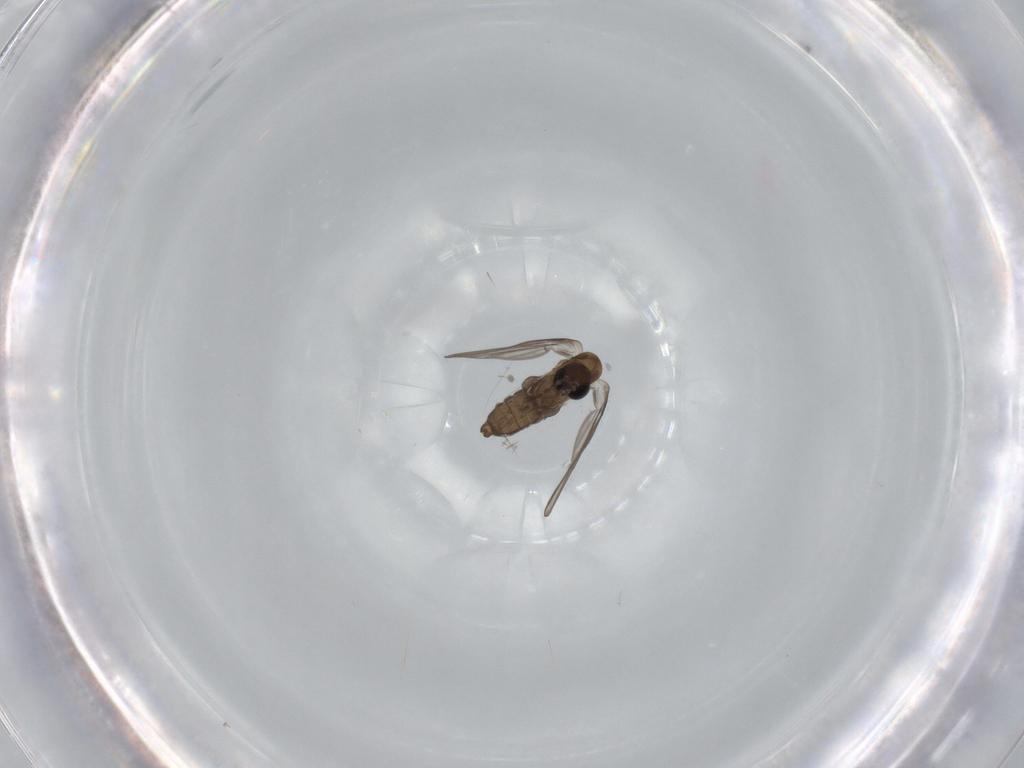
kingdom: Animalia
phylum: Arthropoda
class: Insecta
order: Diptera
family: Psychodidae
